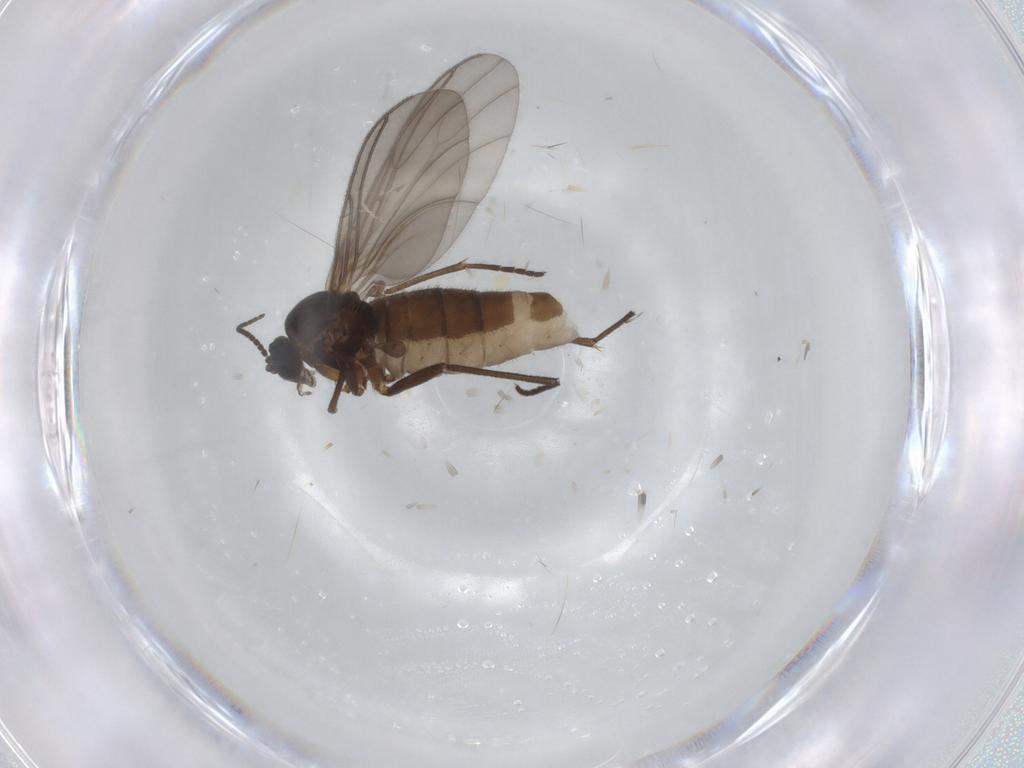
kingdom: Animalia
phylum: Arthropoda
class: Insecta
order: Diptera
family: Sciaridae
